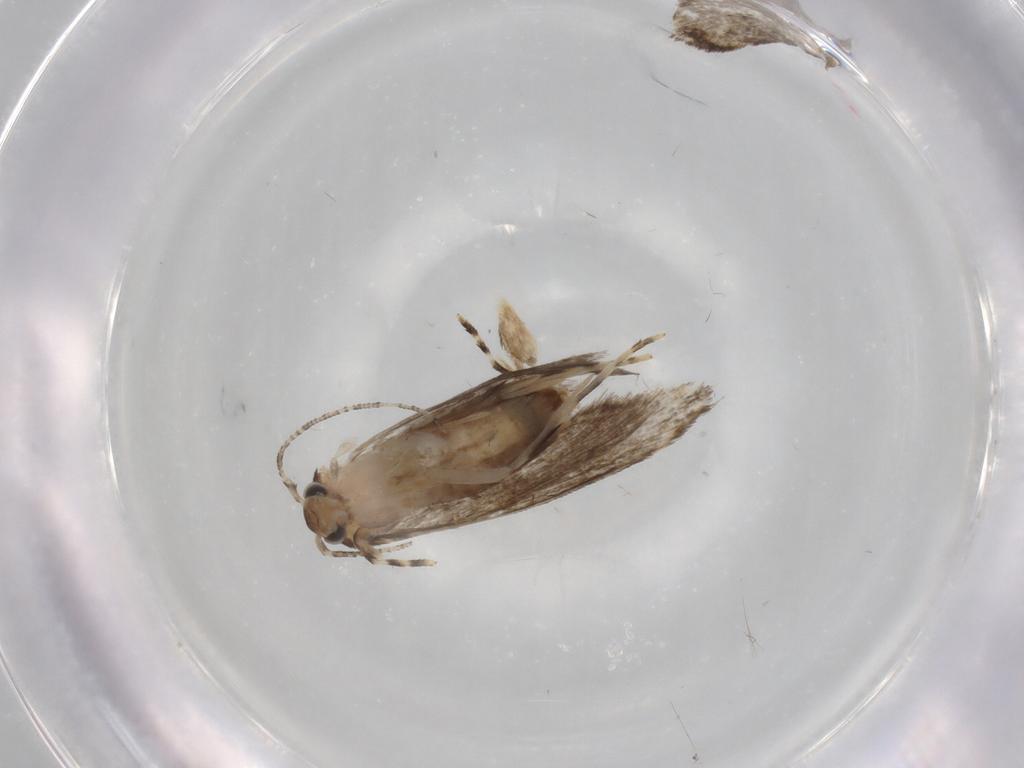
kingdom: Animalia
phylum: Arthropoda
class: Insecta
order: Lepidoptera
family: Tineidae
